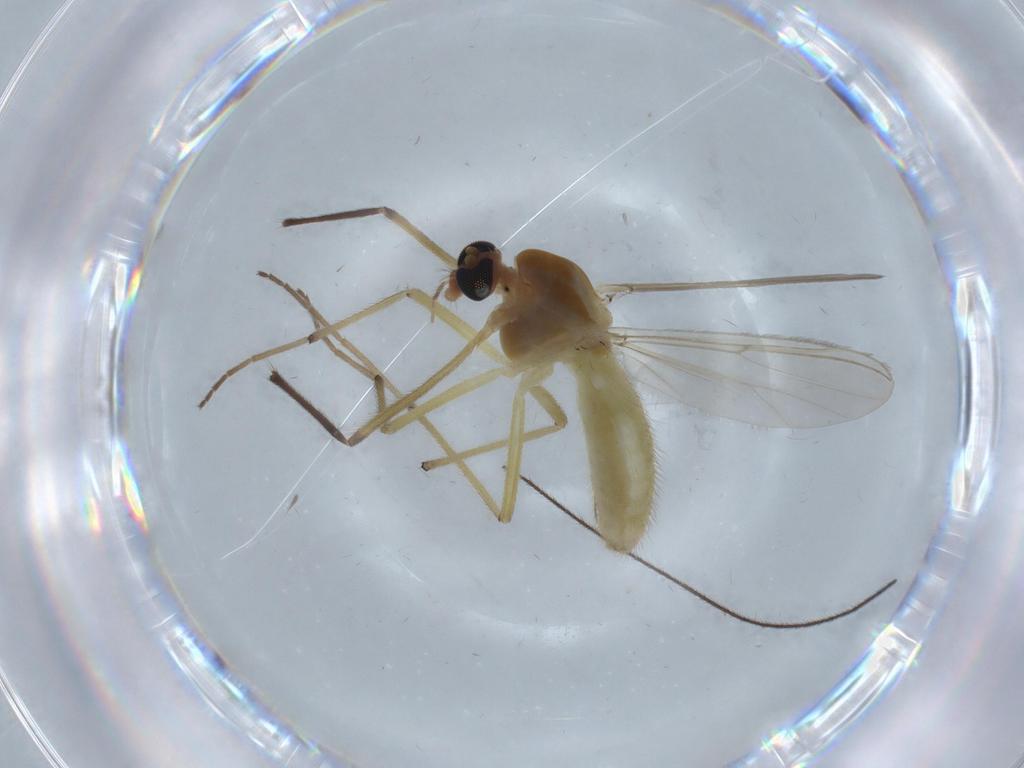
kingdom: Animalia
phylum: Arthropoda
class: Insecta
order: Diptera
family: Chironomidae
